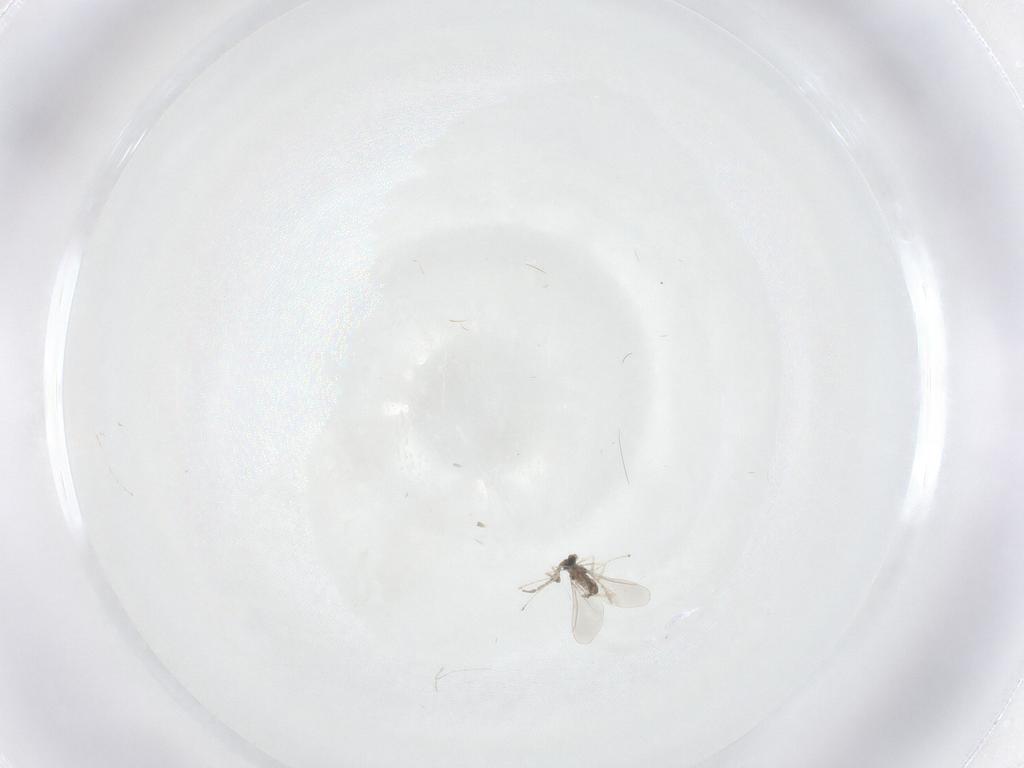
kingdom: Animalia
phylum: Arthropoda
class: Insecta
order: Diptera
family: Cecidomyiidae
